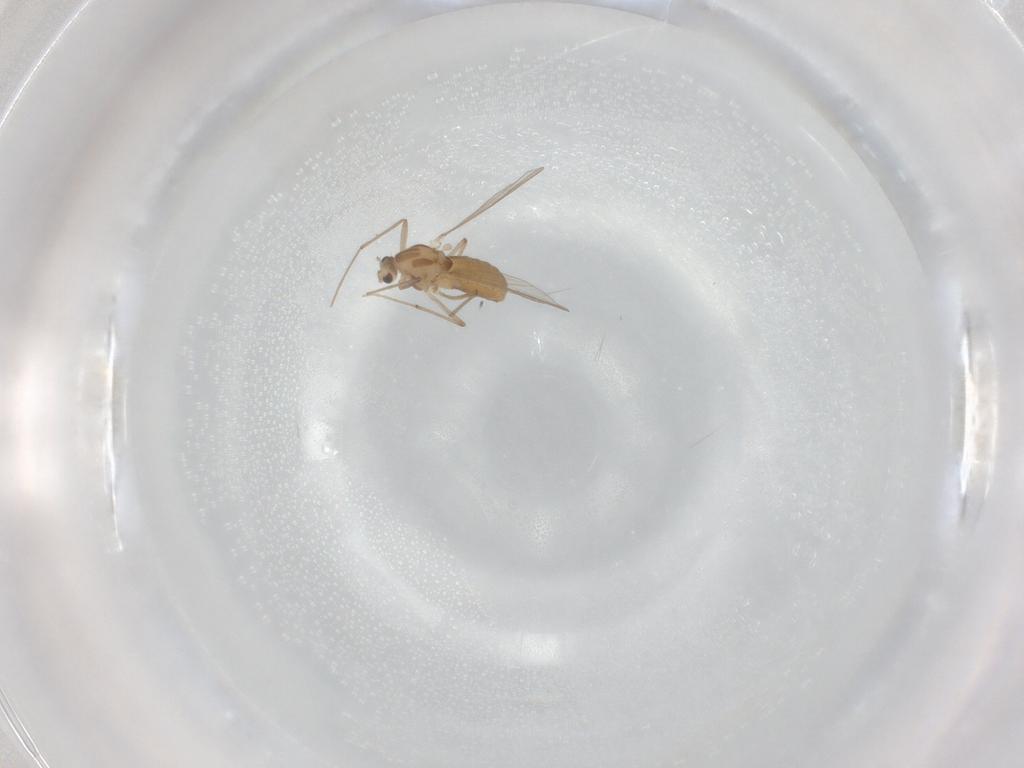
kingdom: Animalia
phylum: Arthropoda
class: Insecta
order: Diptera
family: Chironomidae
